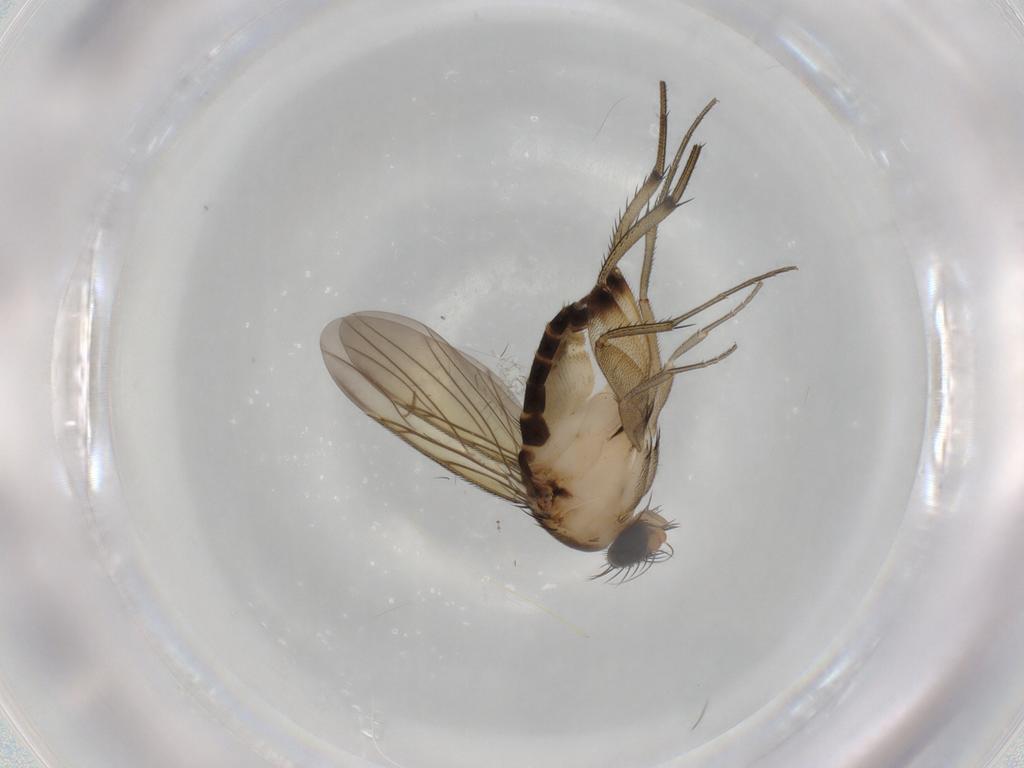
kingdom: Animalia
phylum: Arthropoda
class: Insecta
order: Diptera
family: Phoridae
